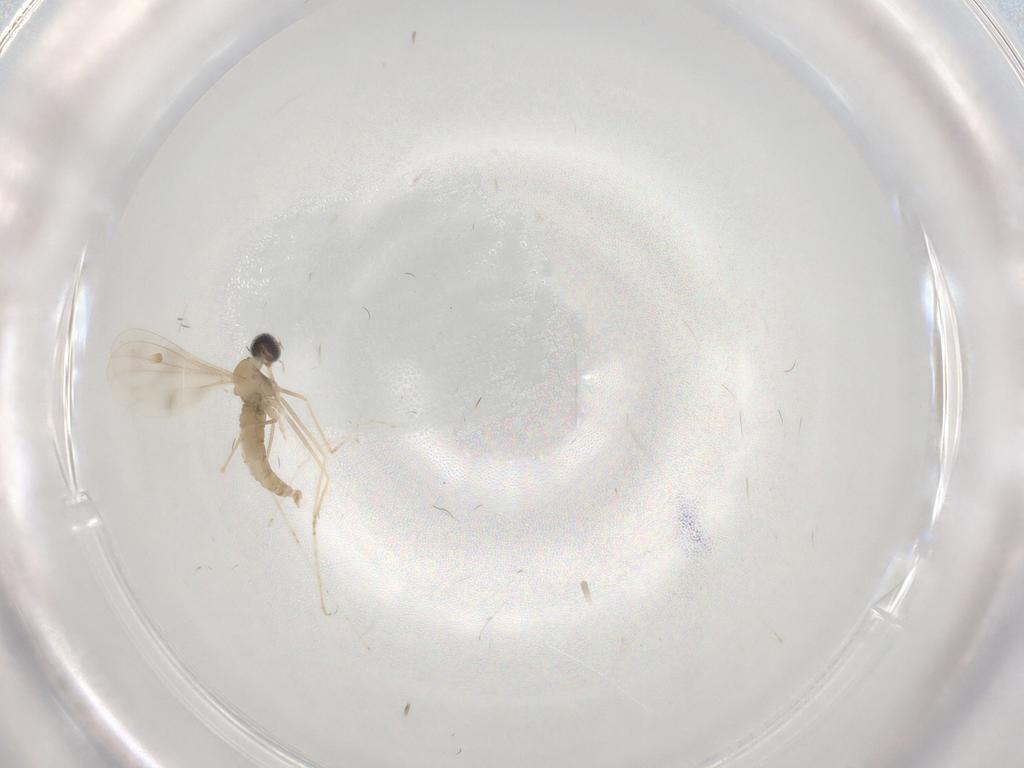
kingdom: Animalia
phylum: Arthropoda
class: Insecta
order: Diptera
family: Cecidomyiidae
